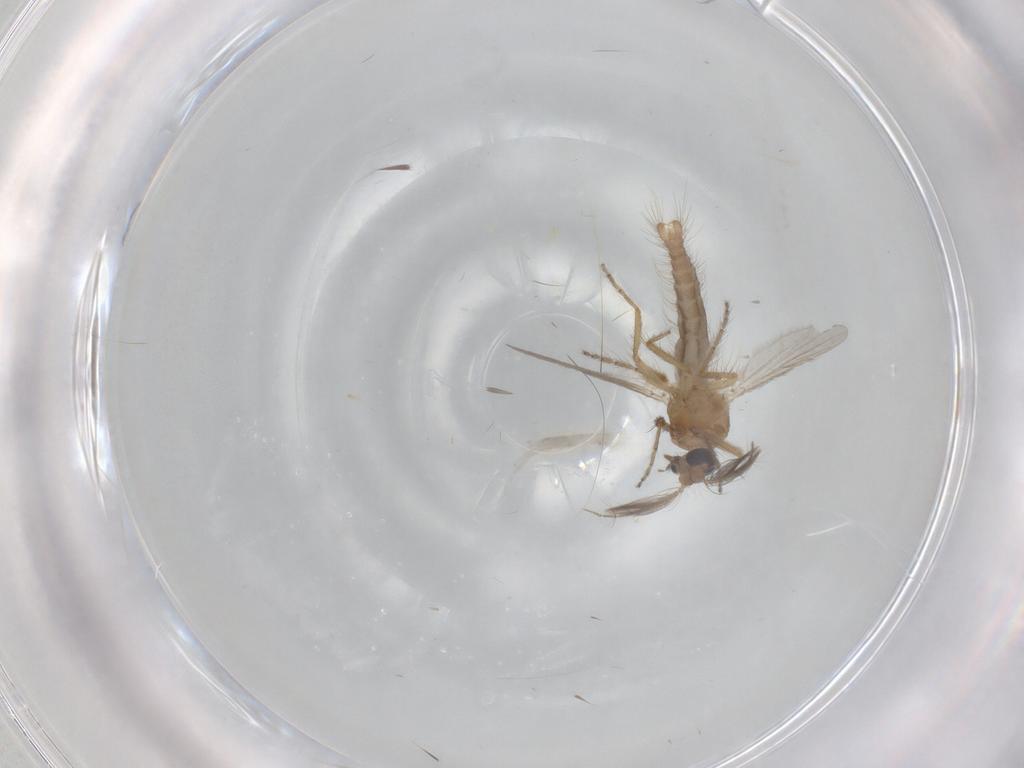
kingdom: Animalia
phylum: Arthropoda
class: Insecta
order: Diptera
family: Ceratopogonidae
